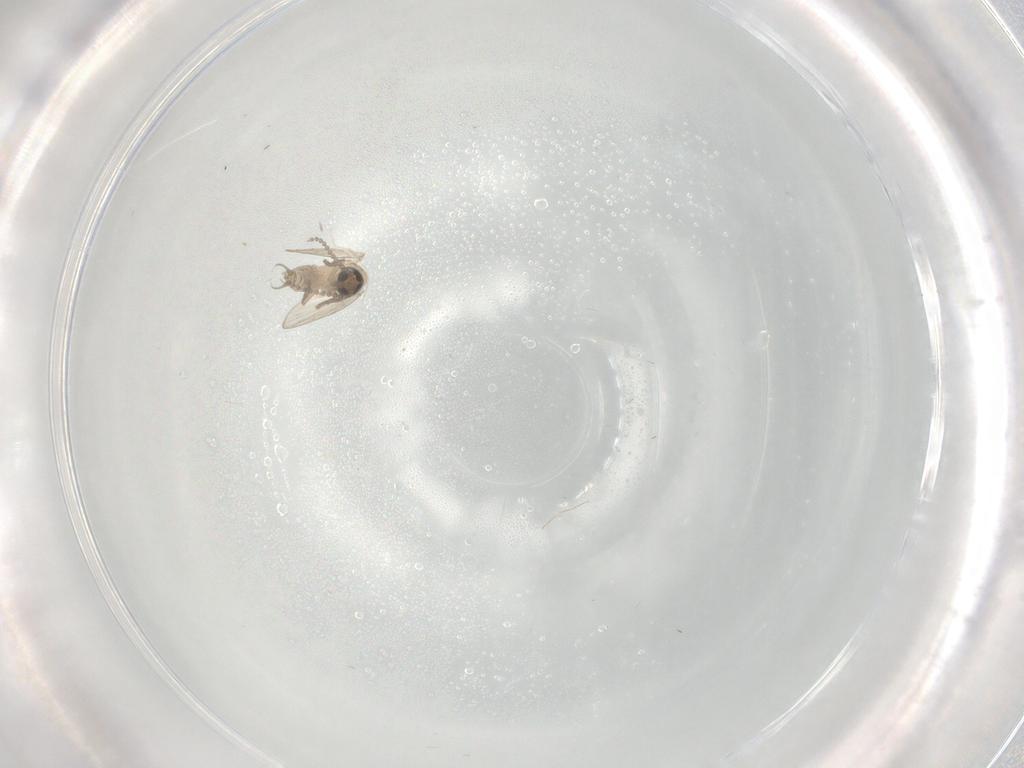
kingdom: Animalia
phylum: Arthropoda
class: Insecta
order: Diptera
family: Psychodidae
